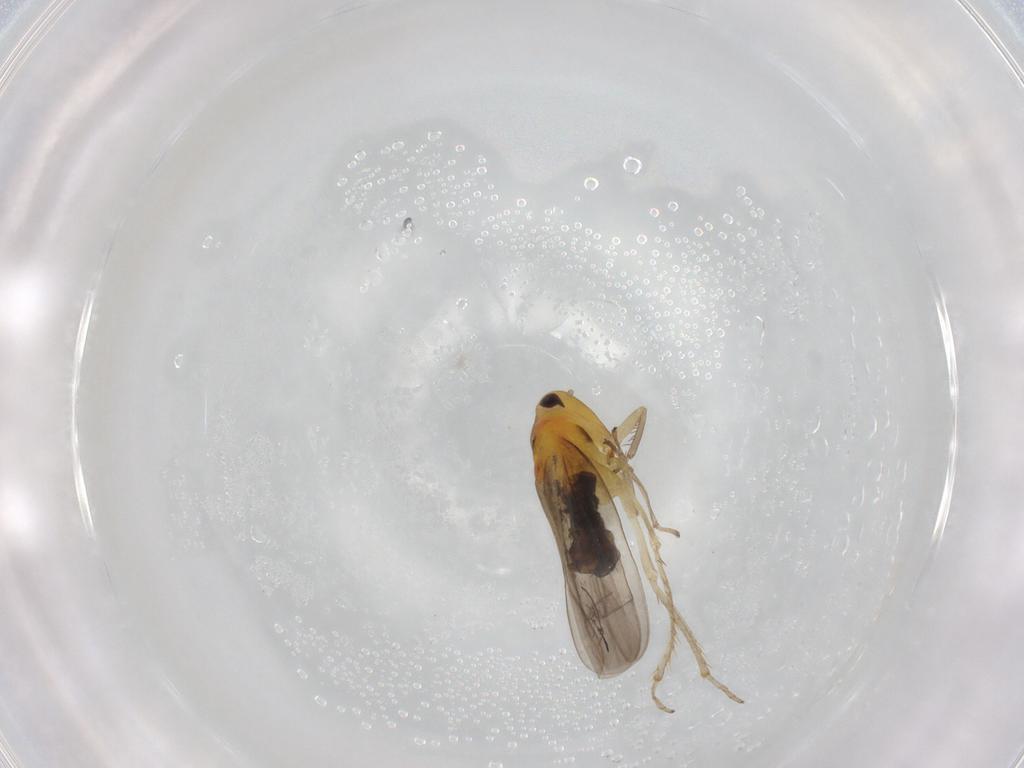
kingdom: Animalia
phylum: Arthropoda
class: Insecta
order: Hemiptera
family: Cicadellidae
